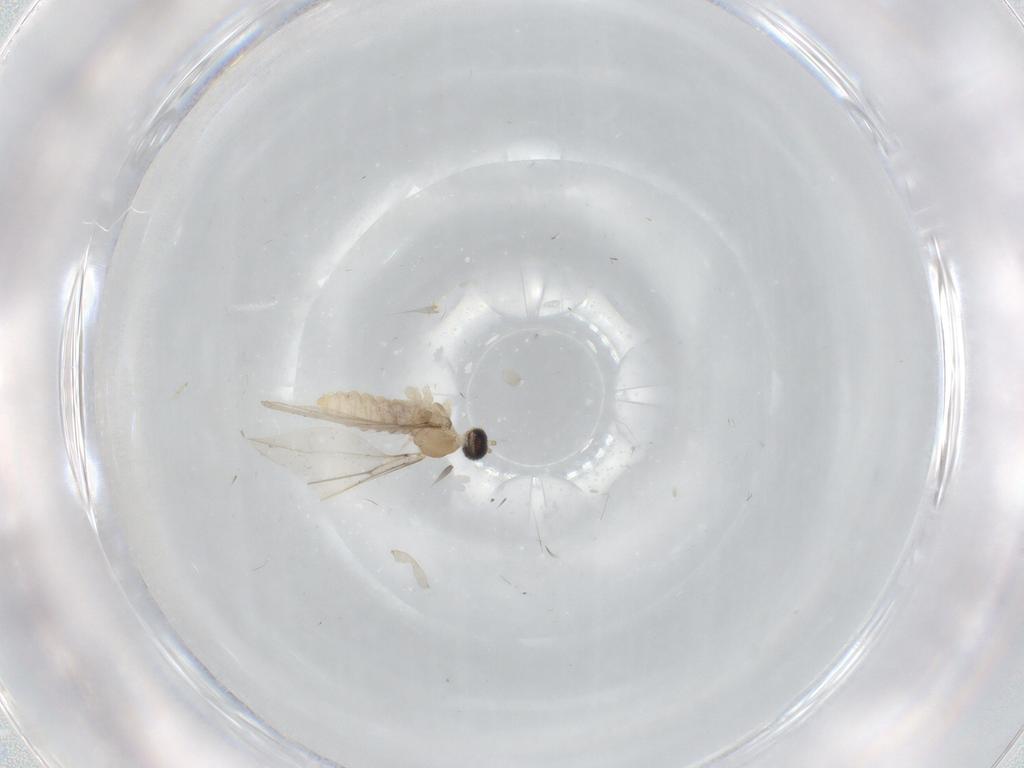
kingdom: Animalia
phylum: Arthropoda
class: Insecta
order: Diptera
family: Cecidomyiidae
